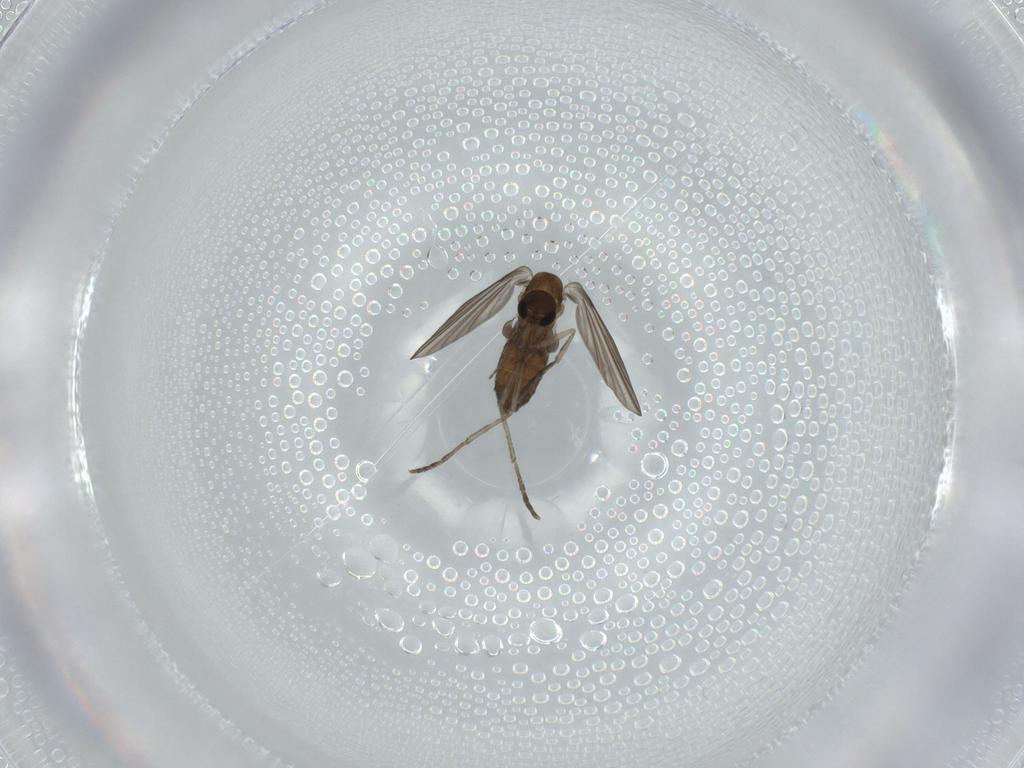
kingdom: Animalia
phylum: Arthropoda
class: Insecta
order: Diptera
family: Psychodidae
